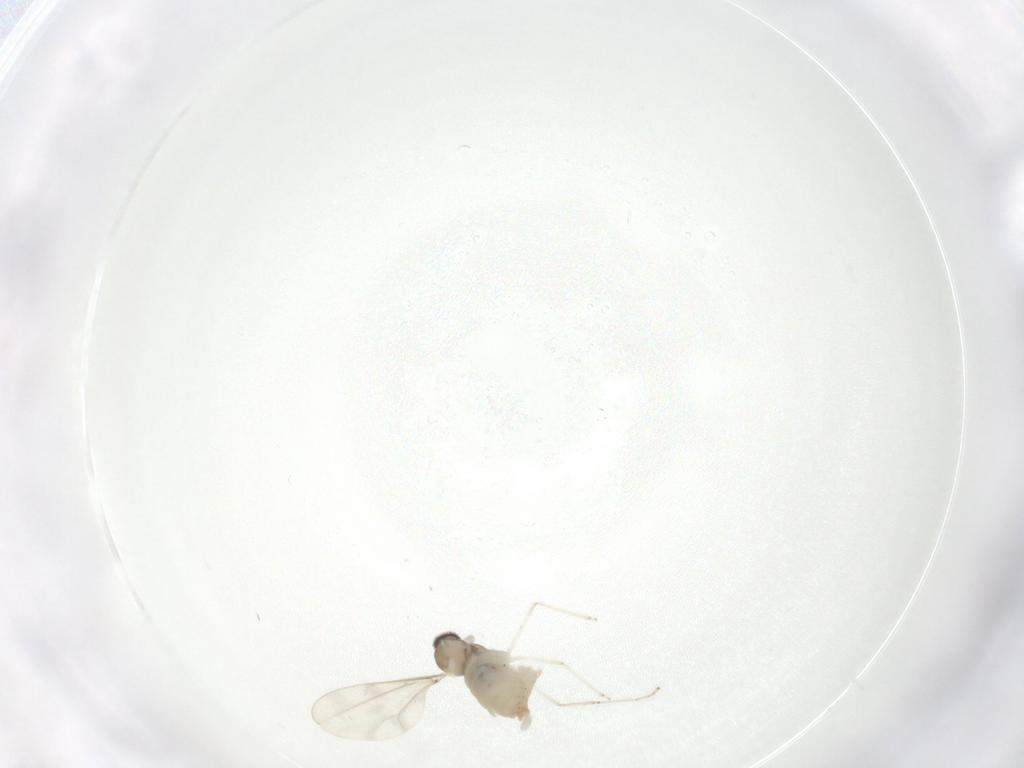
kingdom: Animalia
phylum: Arthropoda
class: Insecta
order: Diptera
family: Cecidomyiidae
